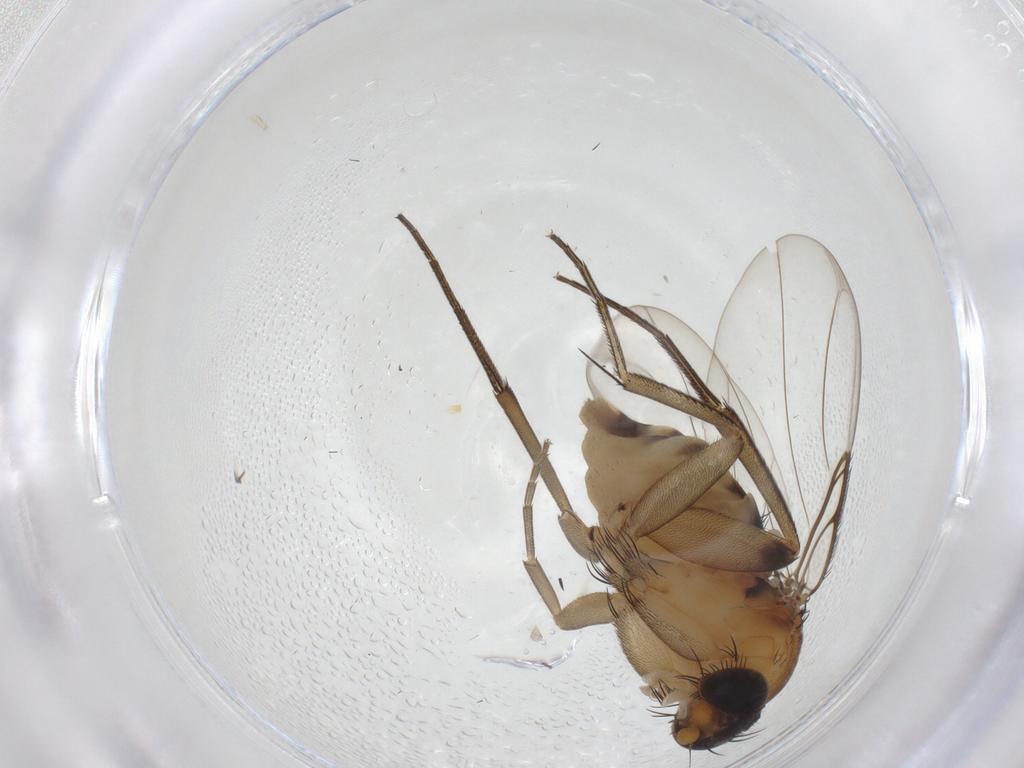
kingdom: Animalia
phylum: Arthropoda
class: Insecta
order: Diptera
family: Phoridae
